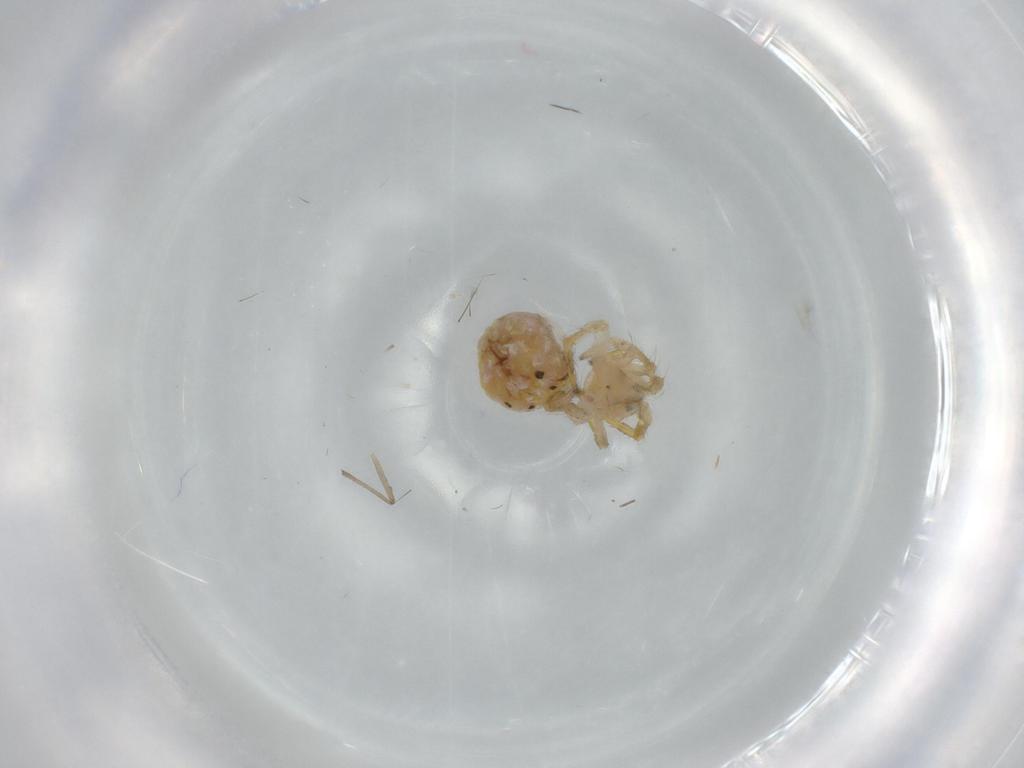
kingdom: Animalia
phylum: Arthropoda
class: Arachnida
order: Araneae
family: Araneidae
